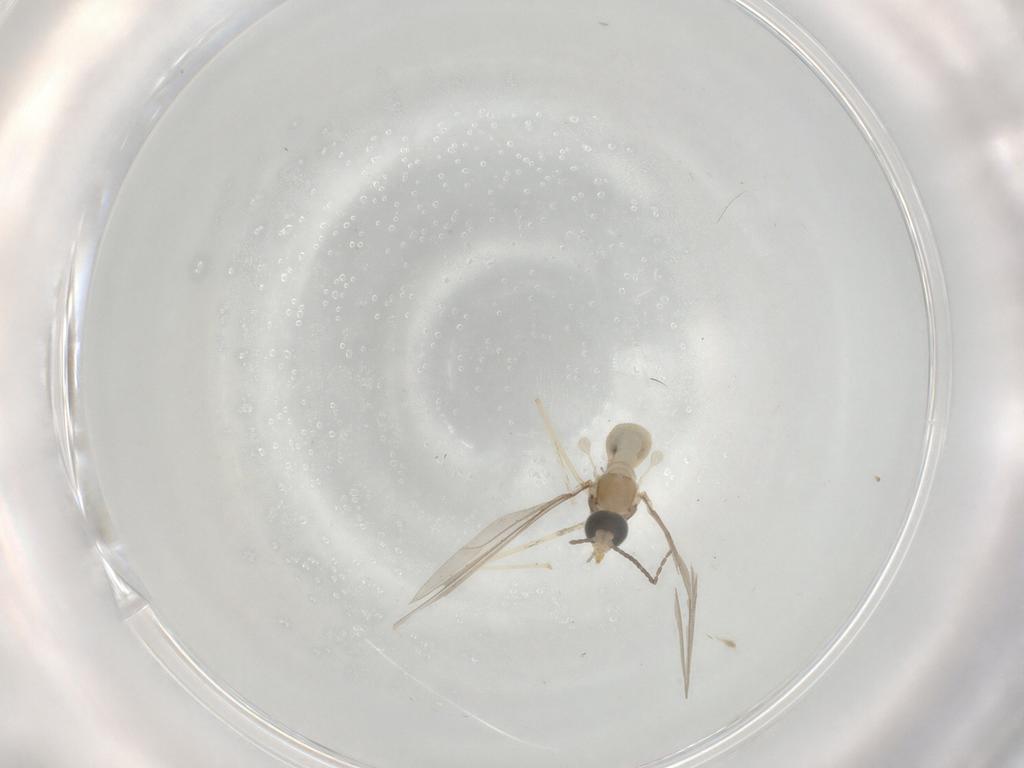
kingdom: Animalia
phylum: Arthropoda
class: Insecta
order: Diptera
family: Cecidomyiidae
